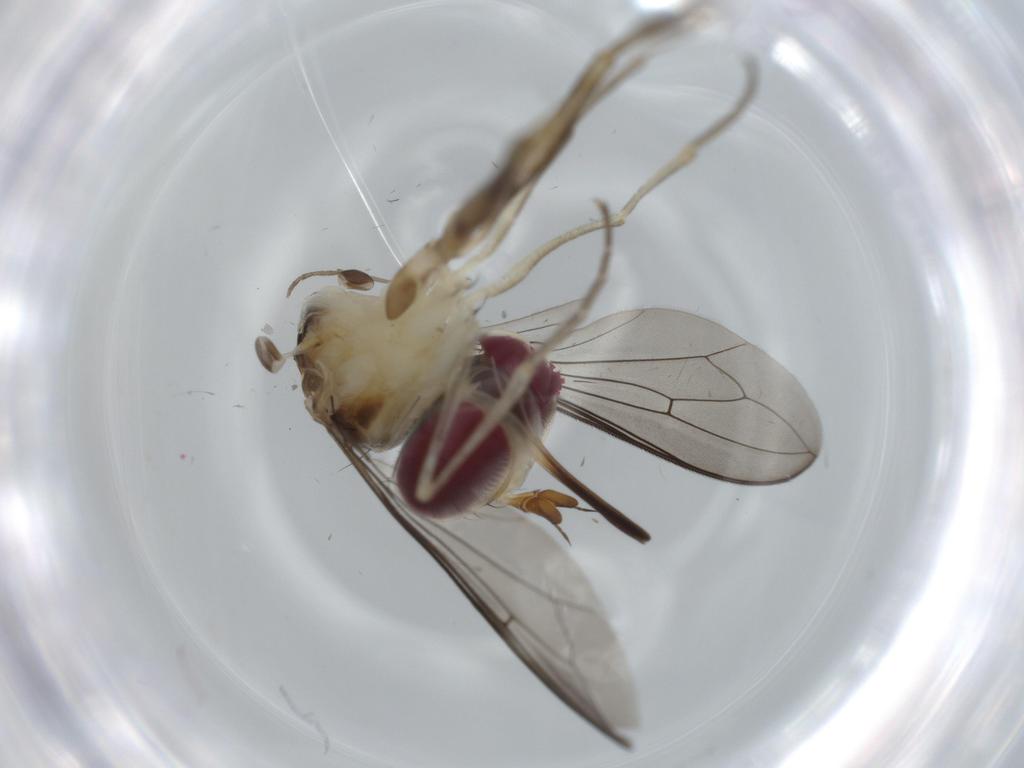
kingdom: Animalia
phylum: Arthropoda
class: Insecta
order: Diptera
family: Conopidae
